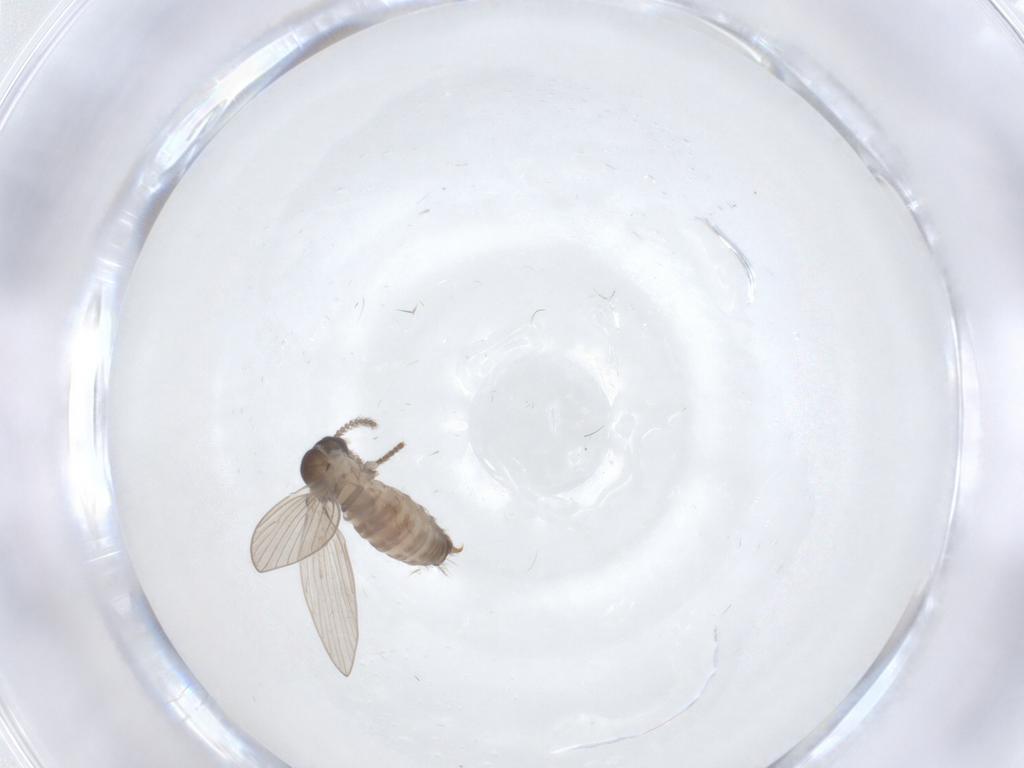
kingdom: Animalia
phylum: Arthropoda
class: Insecta
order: Diptera
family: Psychodidae
